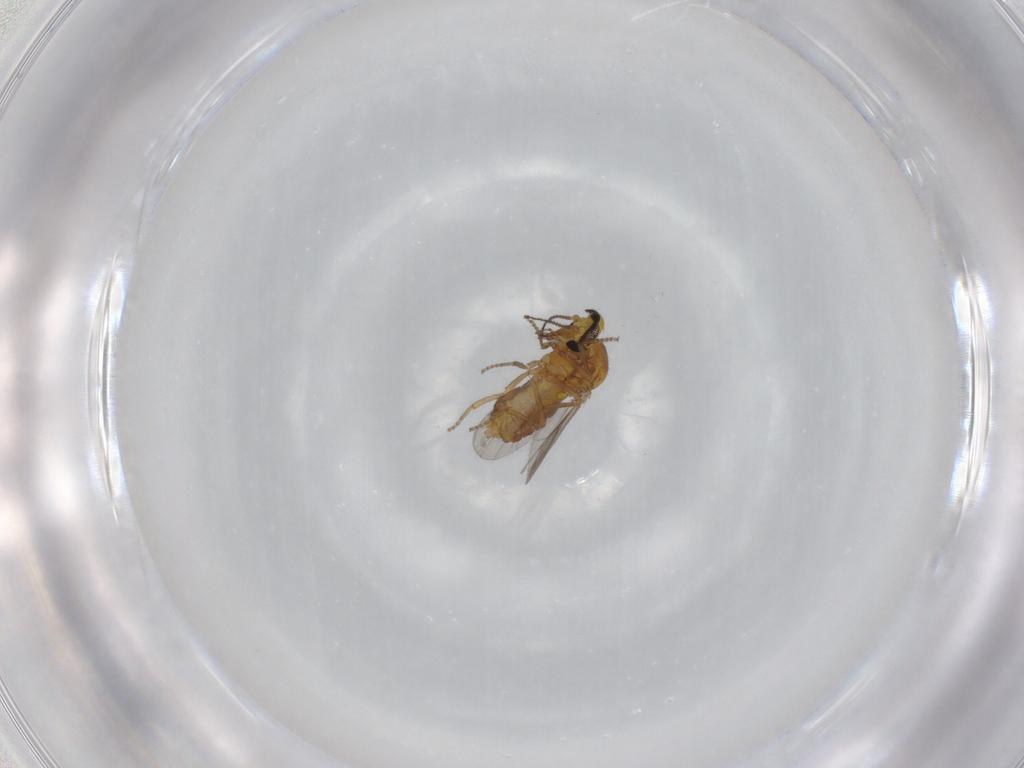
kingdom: Animalia
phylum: Arthropoda
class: Insecta
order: Diptera
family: Ceratopogonidae
